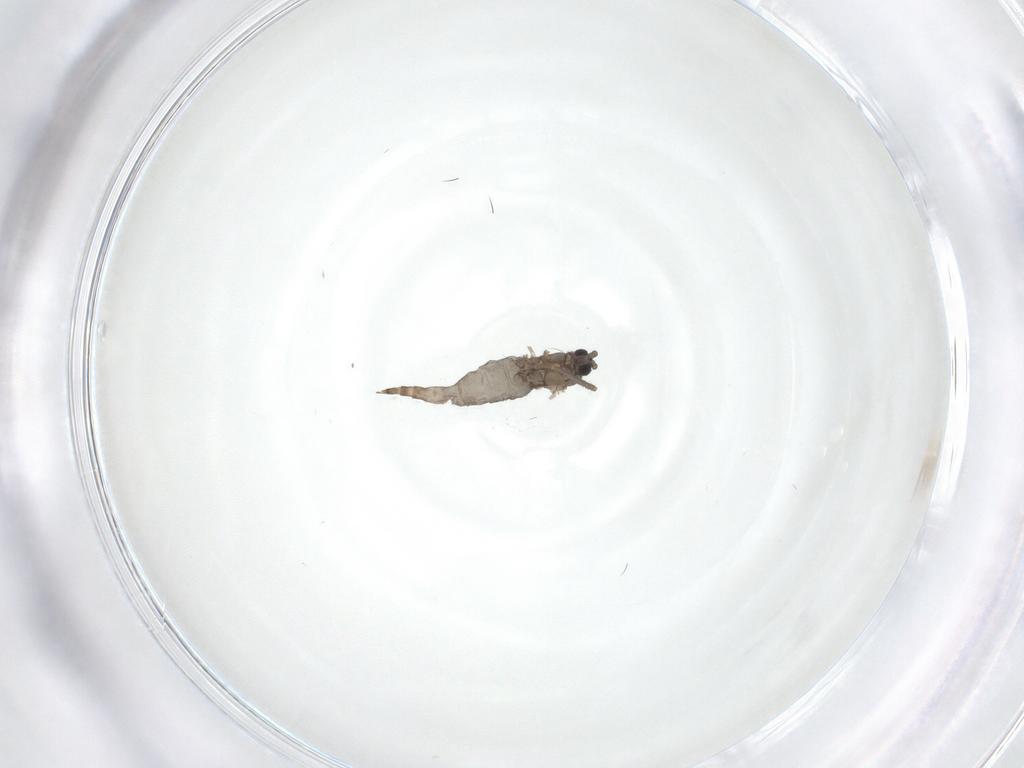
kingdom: Animalia
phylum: Arthropoda
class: Insecta
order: Diptera
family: Sciaridae
